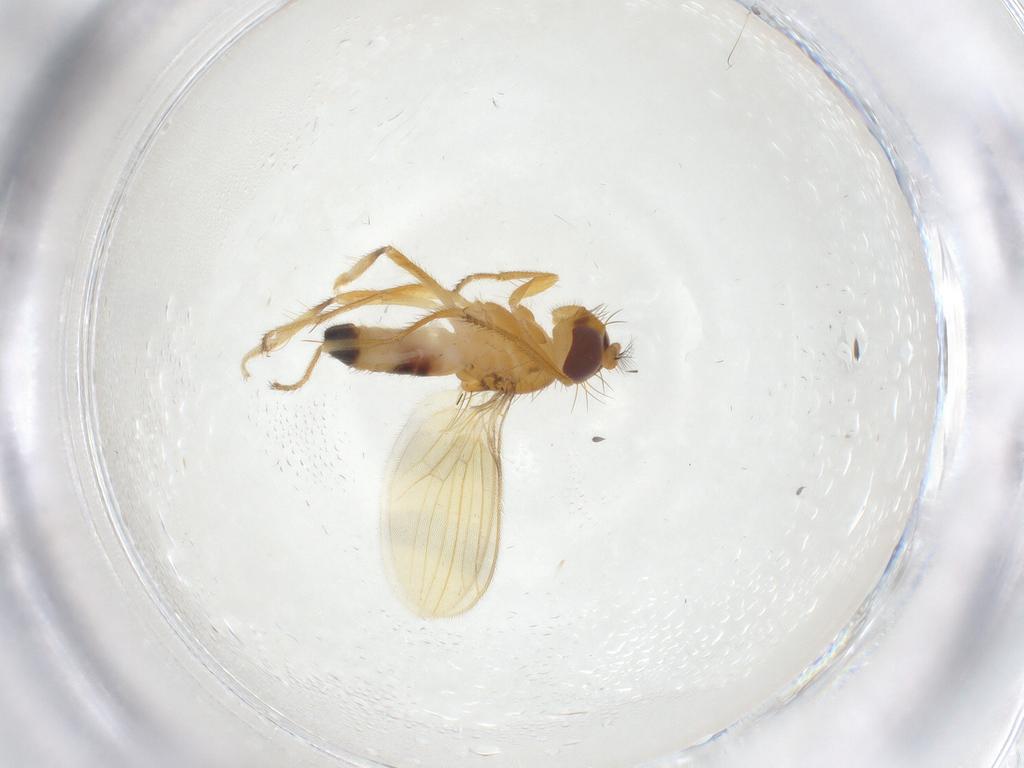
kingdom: Animalia
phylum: Arthropoda
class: Insecta
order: Diptera
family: Periscelididae
